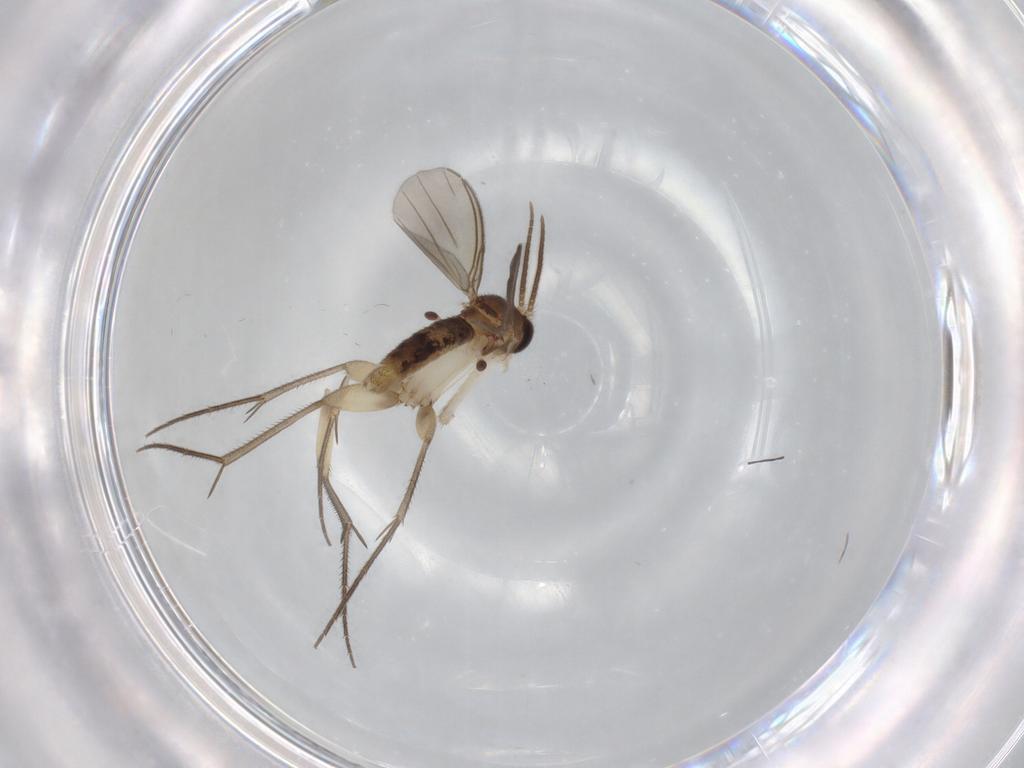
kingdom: Animalia
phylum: Arthropoda
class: Insecta
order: Diptera
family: Mycetophilidae
